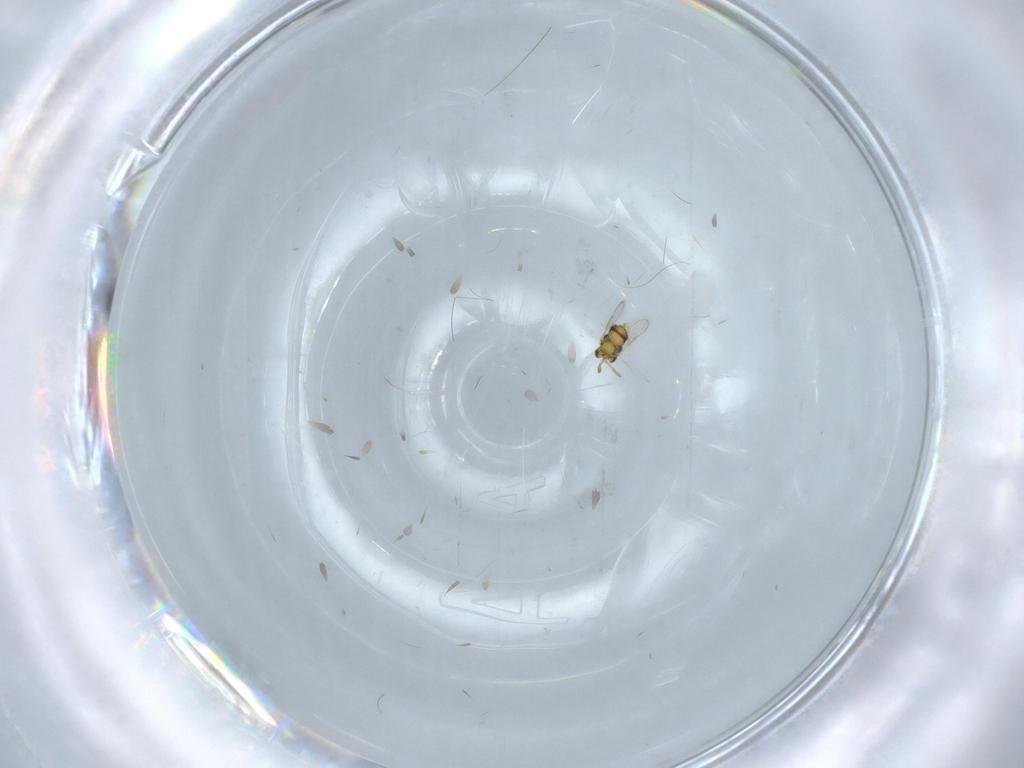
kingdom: Animalia
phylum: Arthropoda
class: Insecta
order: Hymenoptera
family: Aphelinidae
